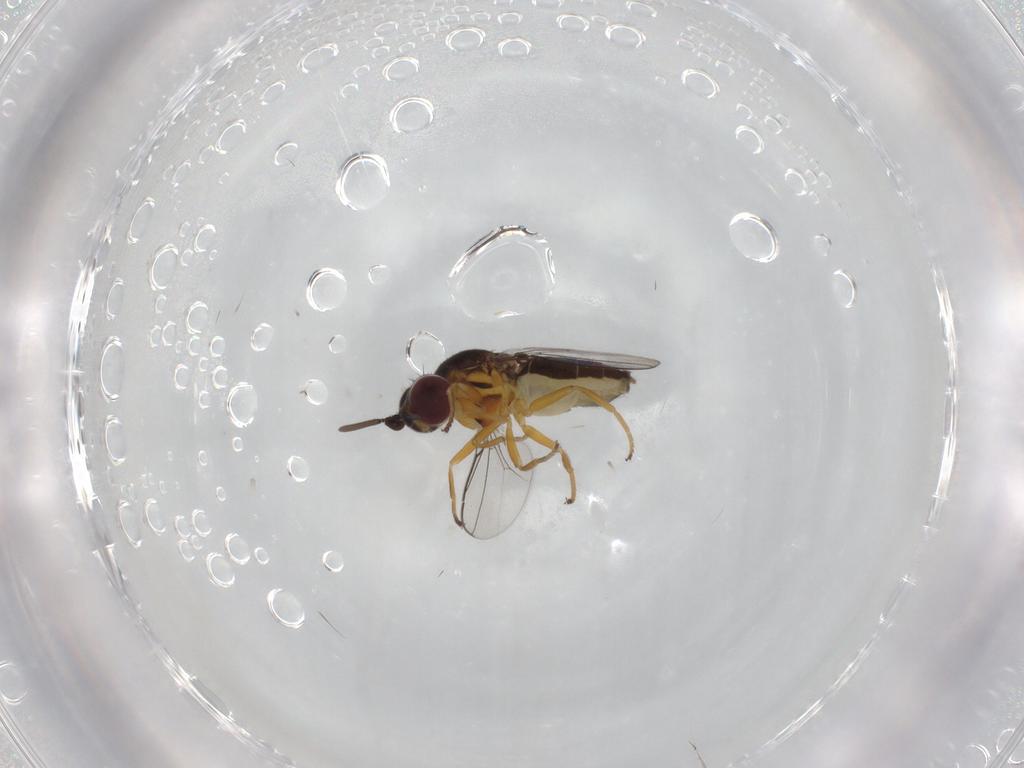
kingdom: Animalia
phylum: Arthropoda
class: Insecta
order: Diptera
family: Chloropidae
